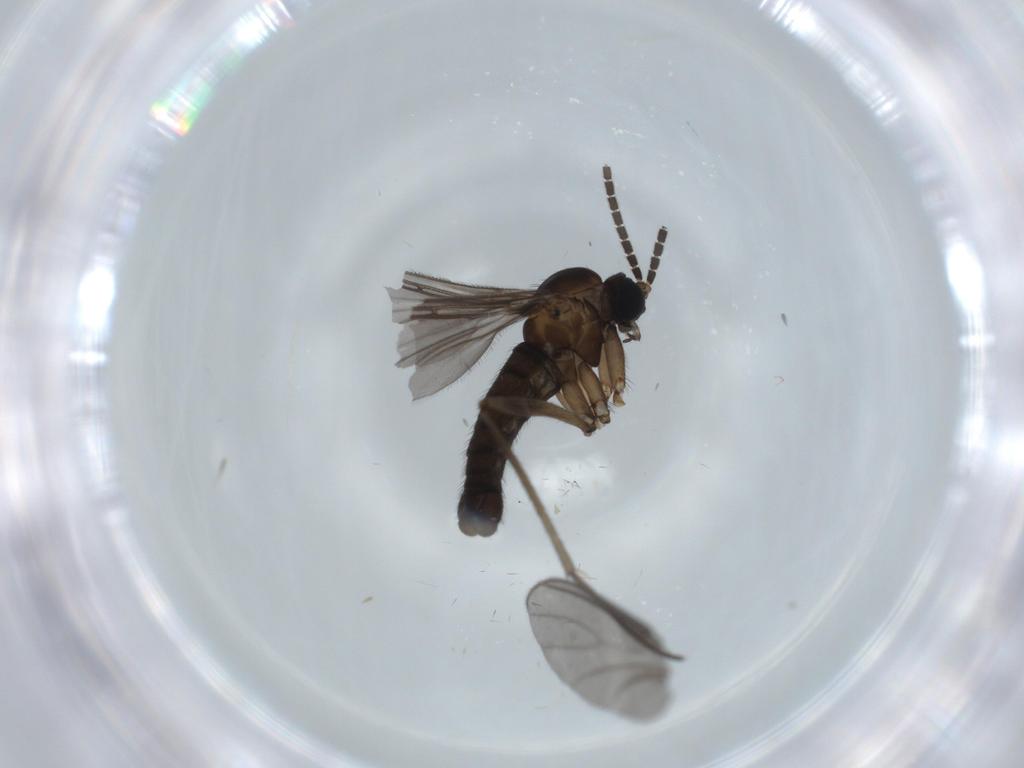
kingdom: Animalia
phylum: Arthropoda
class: Insecta
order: Diptera
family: Sciaridae
